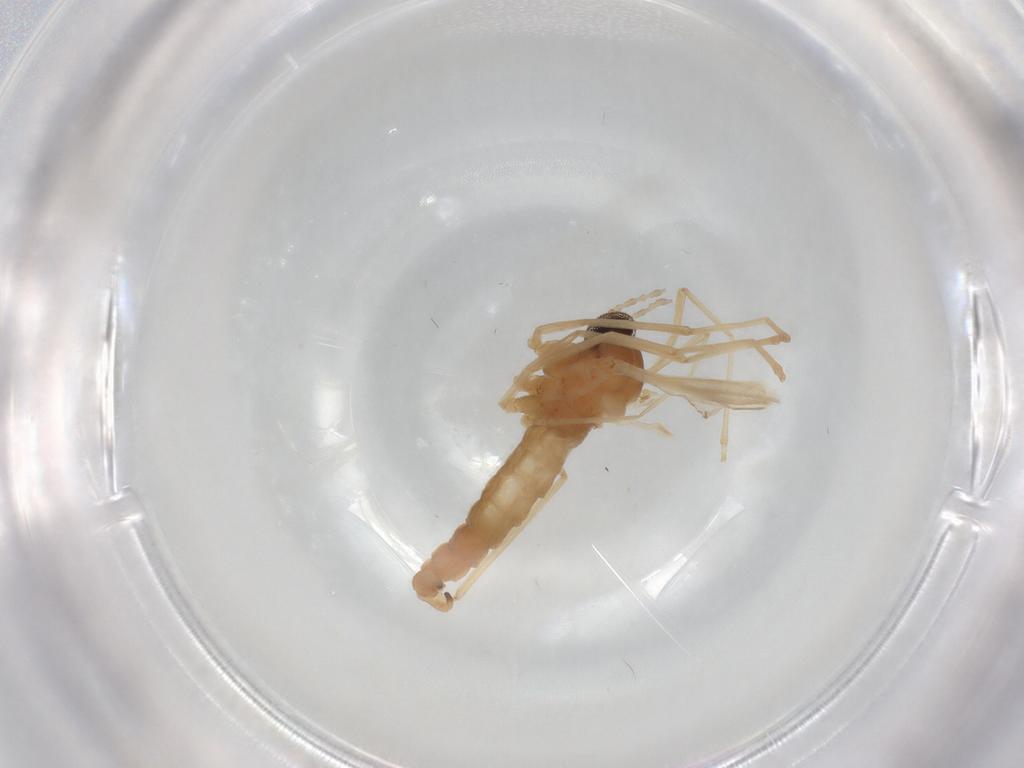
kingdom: Animalia
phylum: Arthropoda
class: Insecta
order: Diptera
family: Cecidomyiidae
